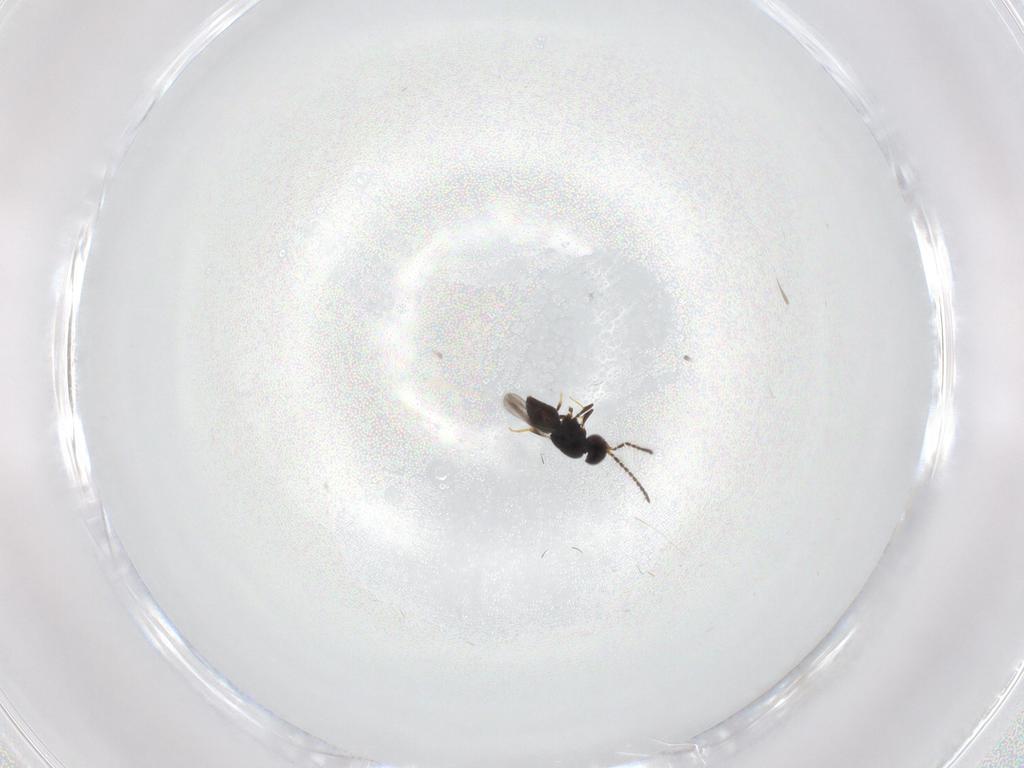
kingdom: Animalia
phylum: Arthropoda
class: Insecta
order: Hymenoptera
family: Ceraphronidae
